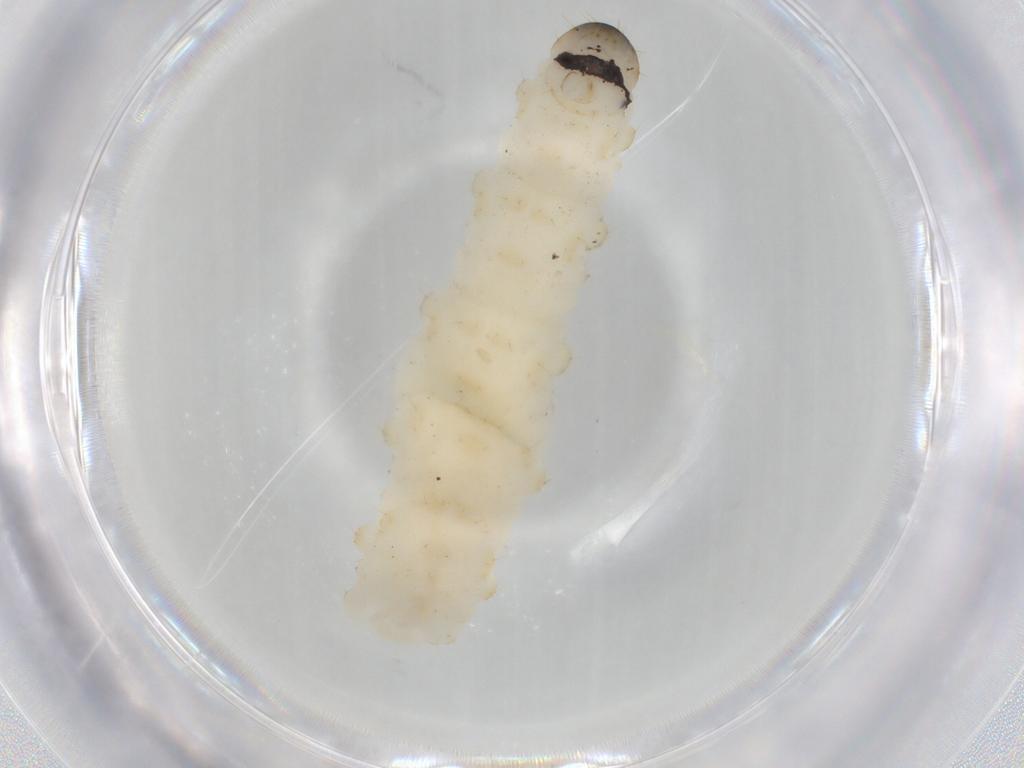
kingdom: Animalia
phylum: Arthropoda
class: Insecta
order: Coleoptera
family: Chrysomelidae
